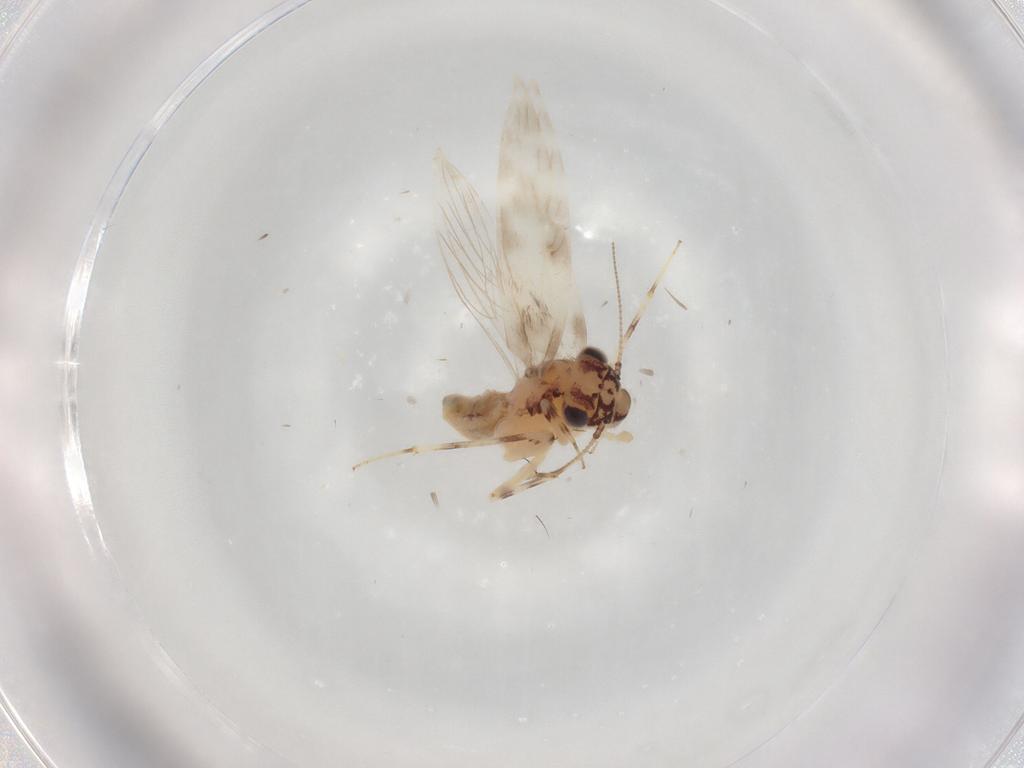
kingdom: Animalia
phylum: Arthropoda
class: Insecta
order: Psocodea
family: Lepidopsocidae
